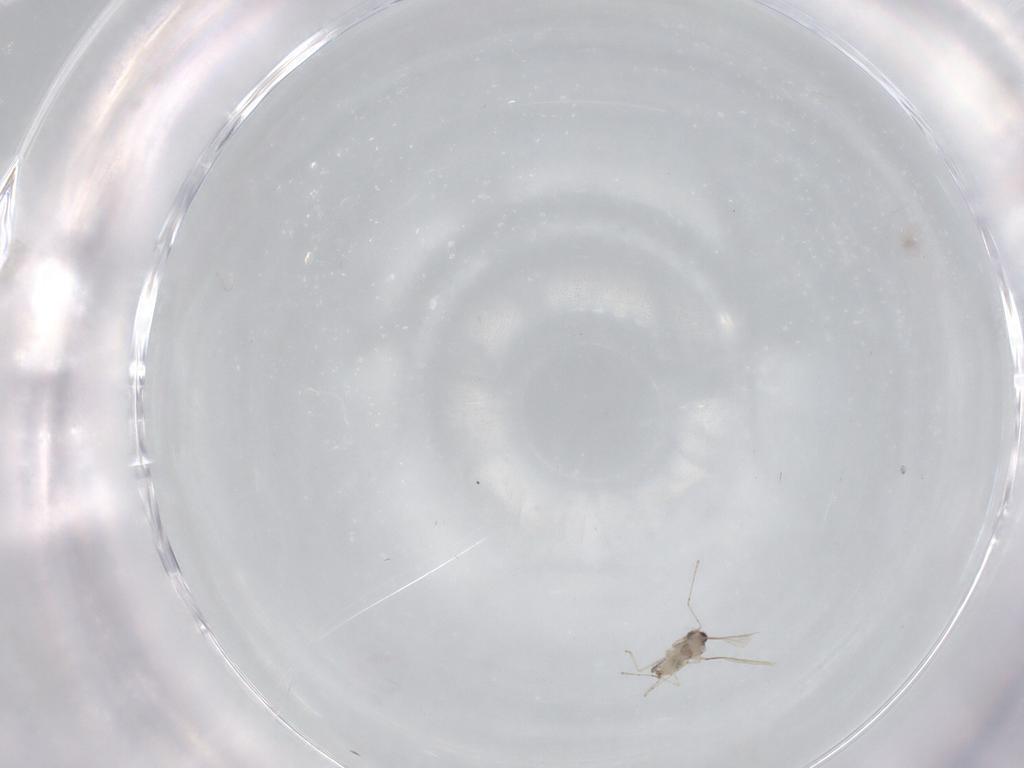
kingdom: Animalia
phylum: Arthropoda
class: Insecta
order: Diptera
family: Cecidomyiidae
